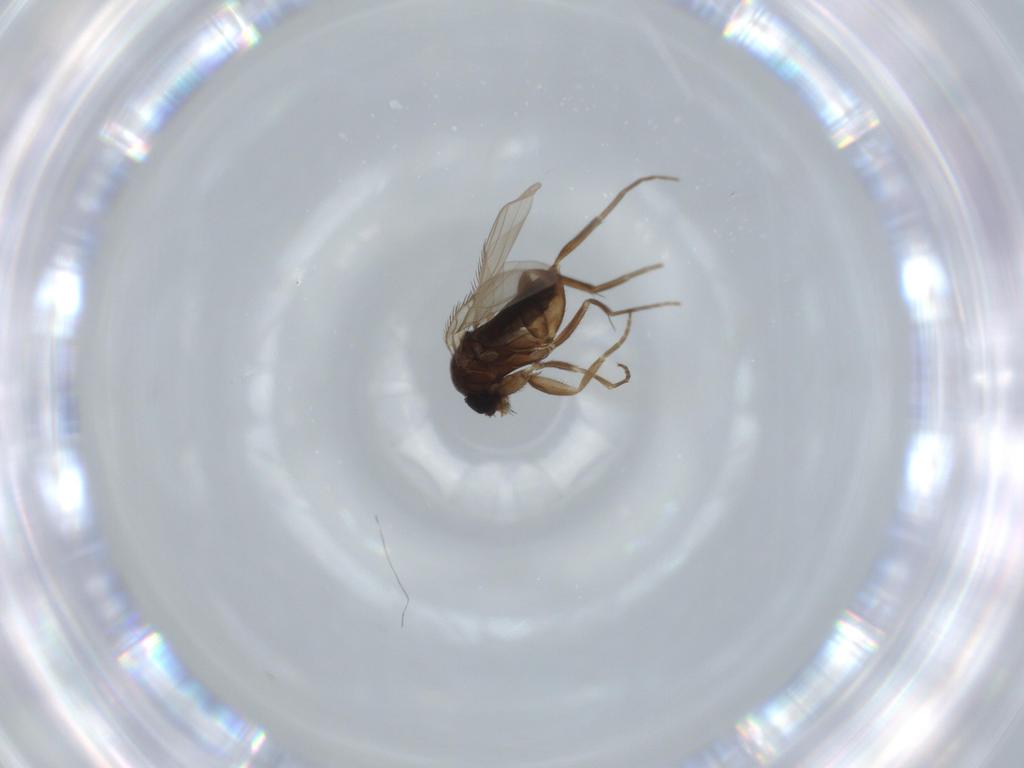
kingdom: Animalia
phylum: Arthropoda
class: Insecta
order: Diptera
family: Phoridae
